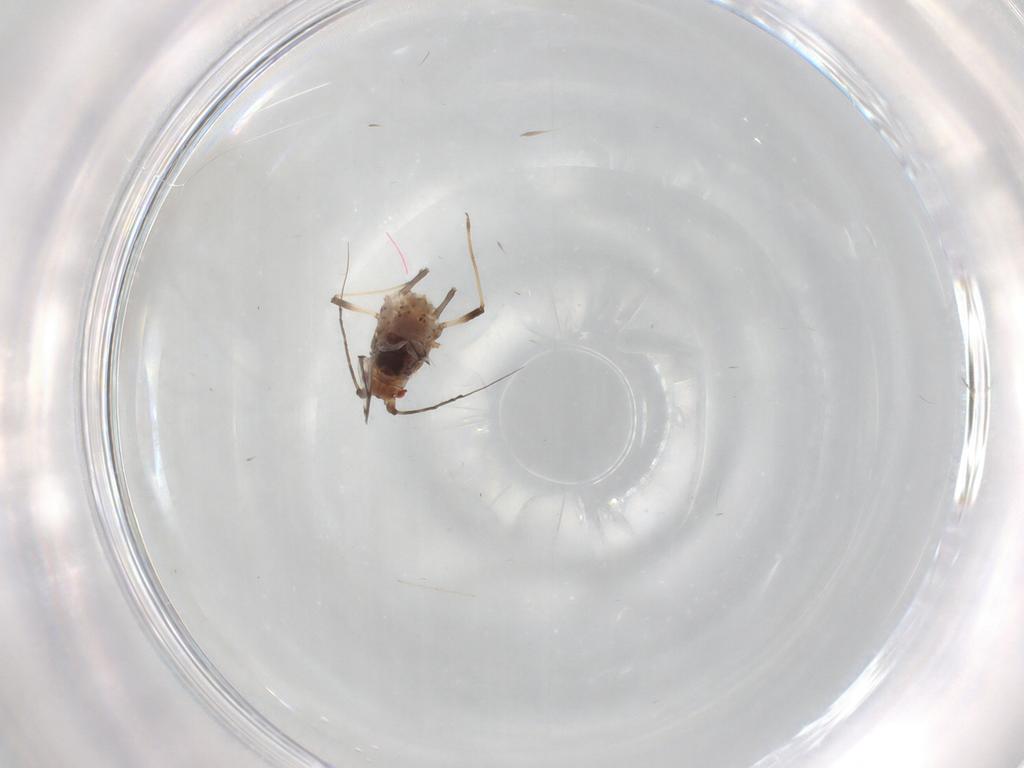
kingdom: Animalia
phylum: Arthropoda
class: Insecta
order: Hemiptera
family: Aphididae
